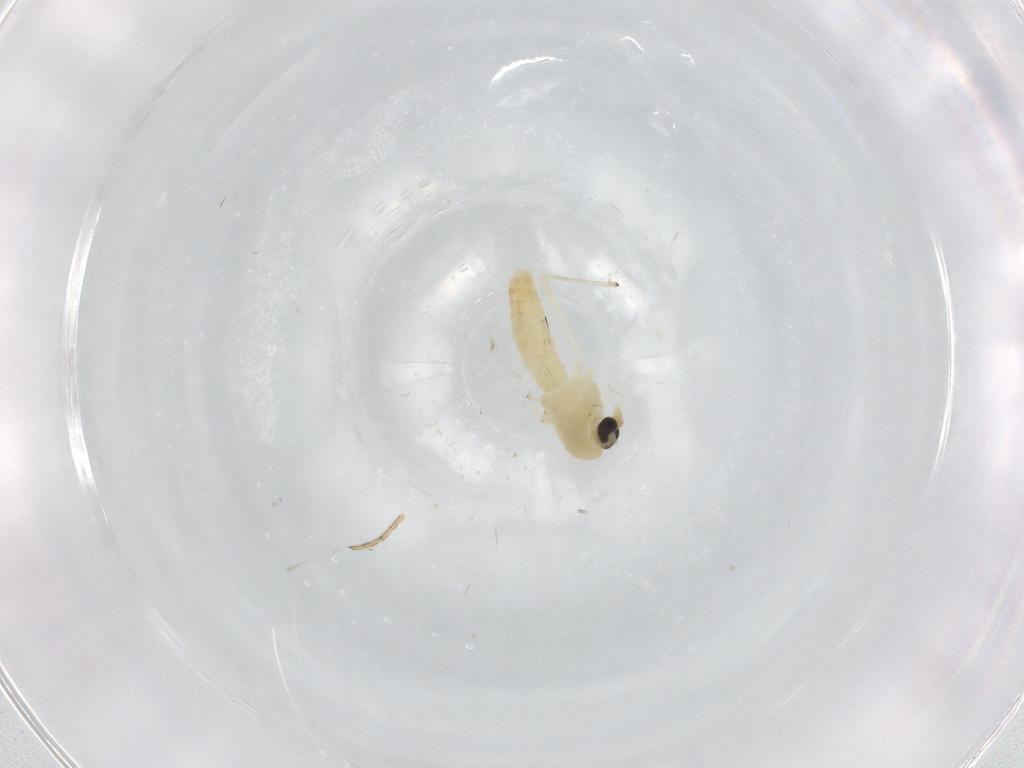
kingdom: Animalia
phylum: Arthropoda
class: Insecta
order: Diptera
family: Chironomidae
